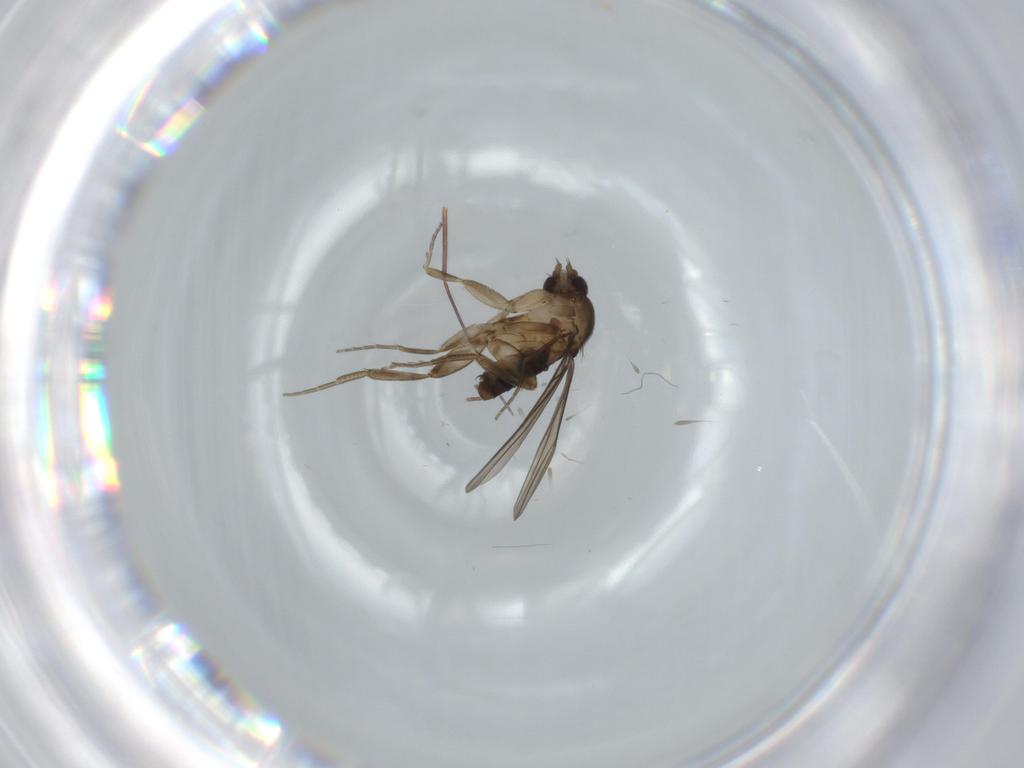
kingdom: Animalia
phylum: Arthropoda
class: Insecta
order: Diptera
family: Phoridae
